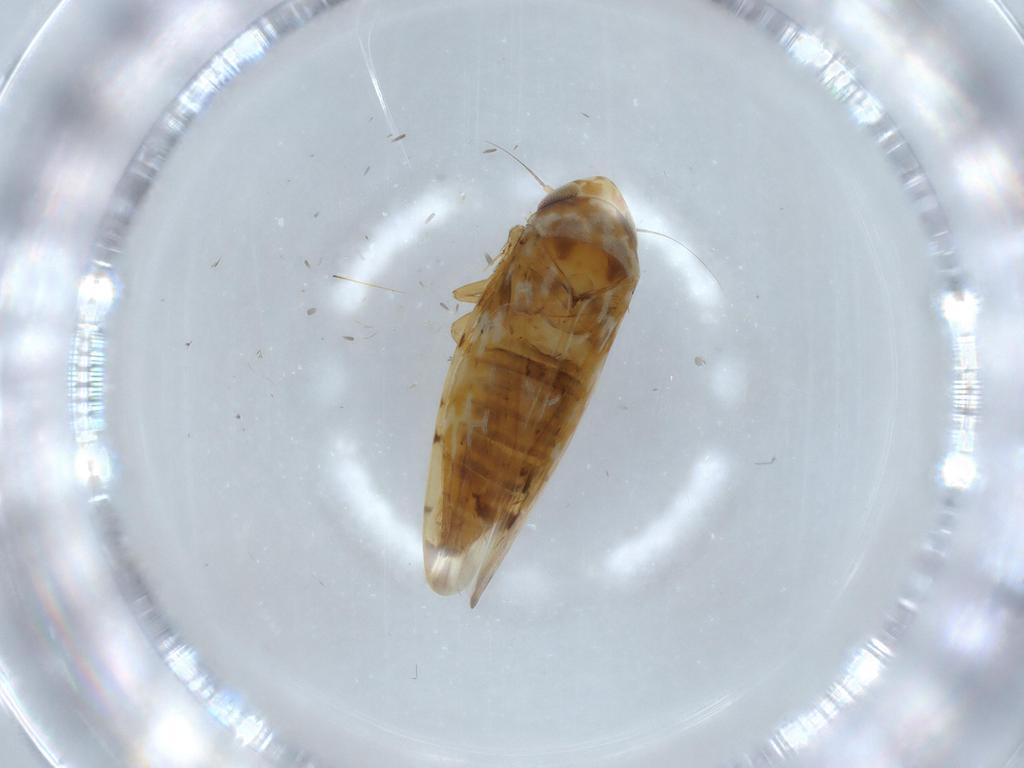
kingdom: Animalia
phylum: Arthropoda
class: Insecta
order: Hemiptera
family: Cicadellidae
